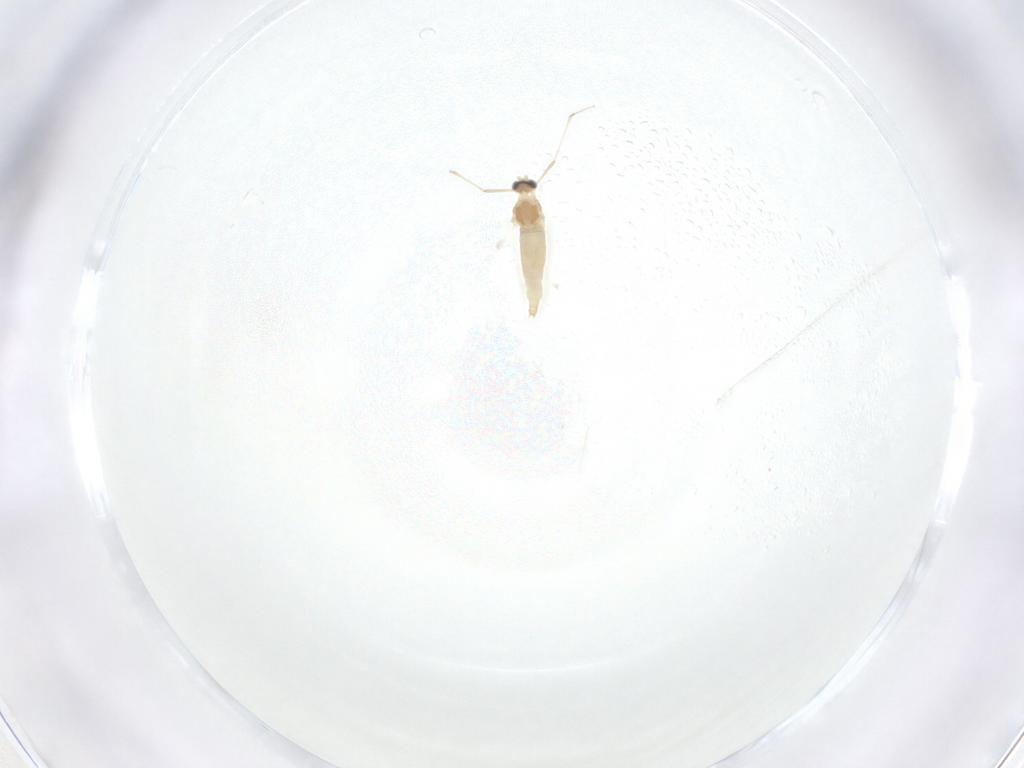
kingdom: Animalia
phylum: Arthropoda
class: Insecta
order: Diptera
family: Cecidomyiidae
